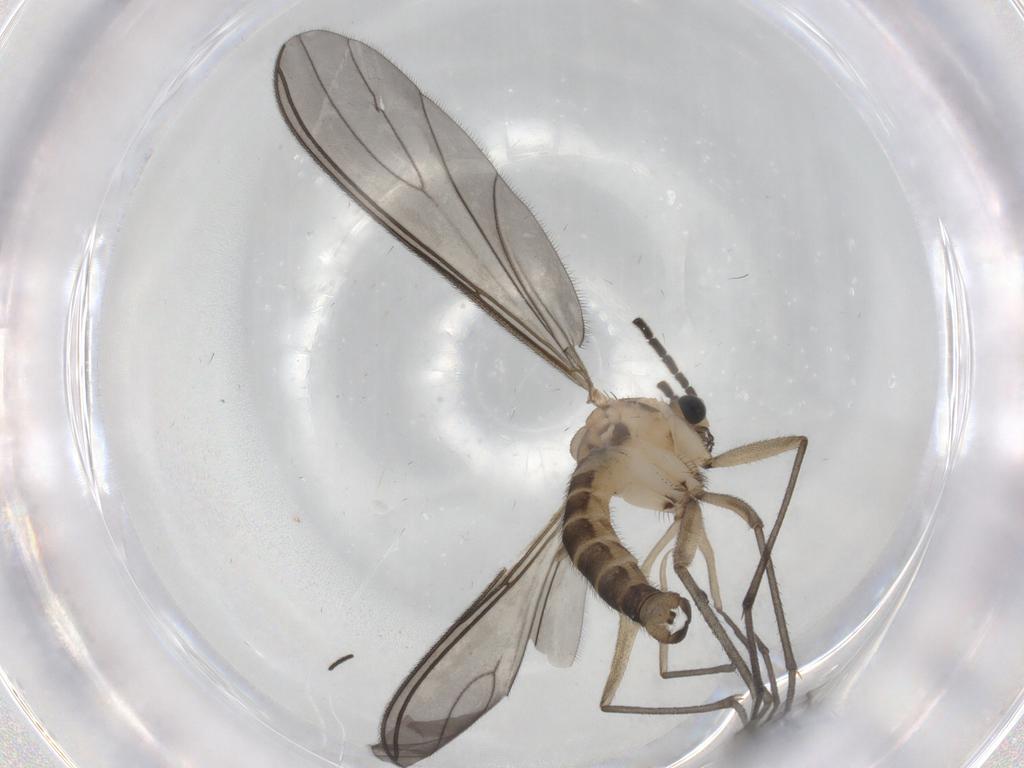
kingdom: Animalia
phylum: Arthropoda
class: Insecta
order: Diptera
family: Sciaridae
